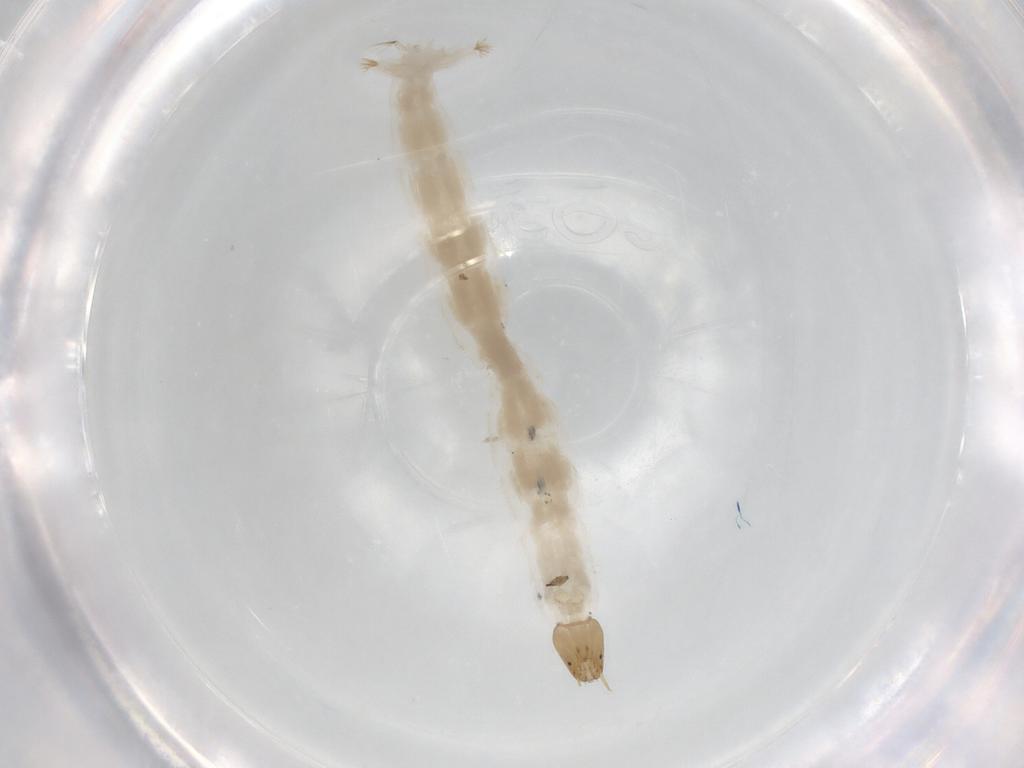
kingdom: Animalia
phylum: Arthropoda
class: Insecta
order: Diptera
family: Chironomidae
